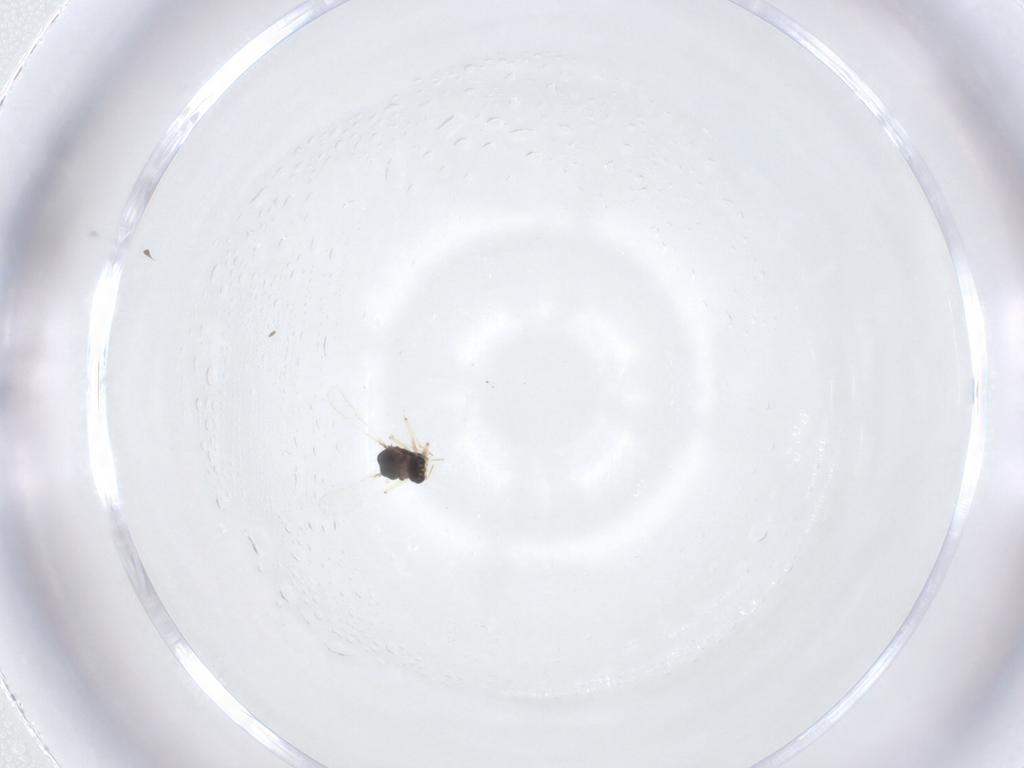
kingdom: Animalia
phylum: Arthropoda
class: Insecta
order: Diptera
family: Chironomidae
